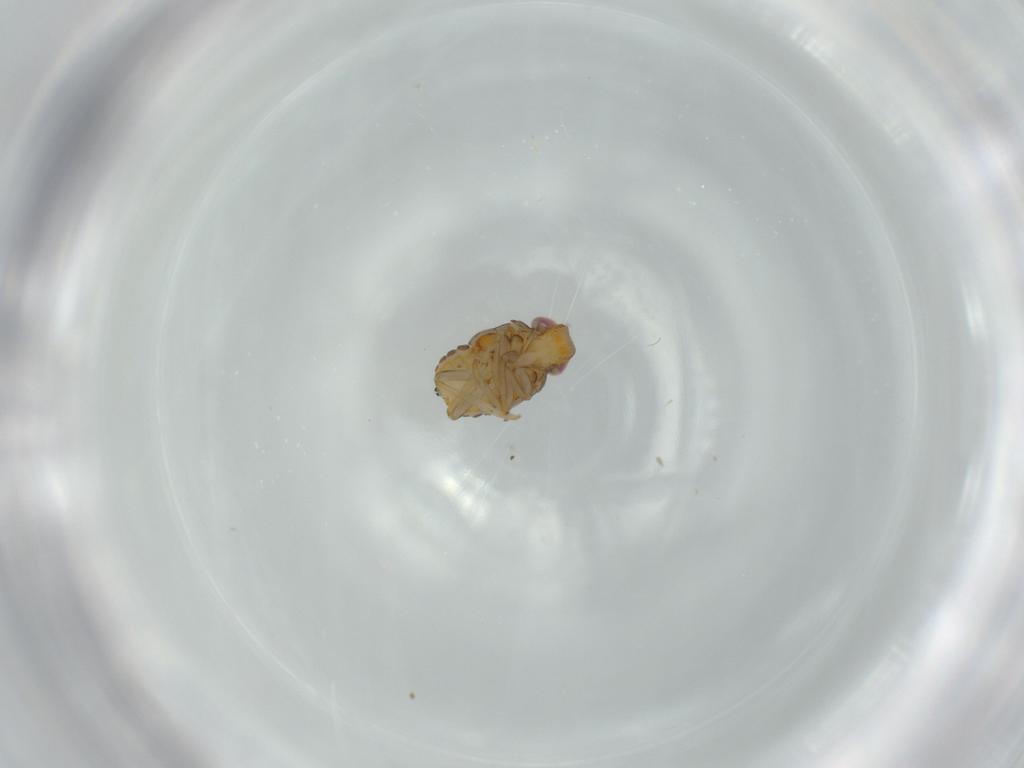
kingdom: Animalia
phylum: Arthropoda
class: Insecta
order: Hemiptera
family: Issidae
